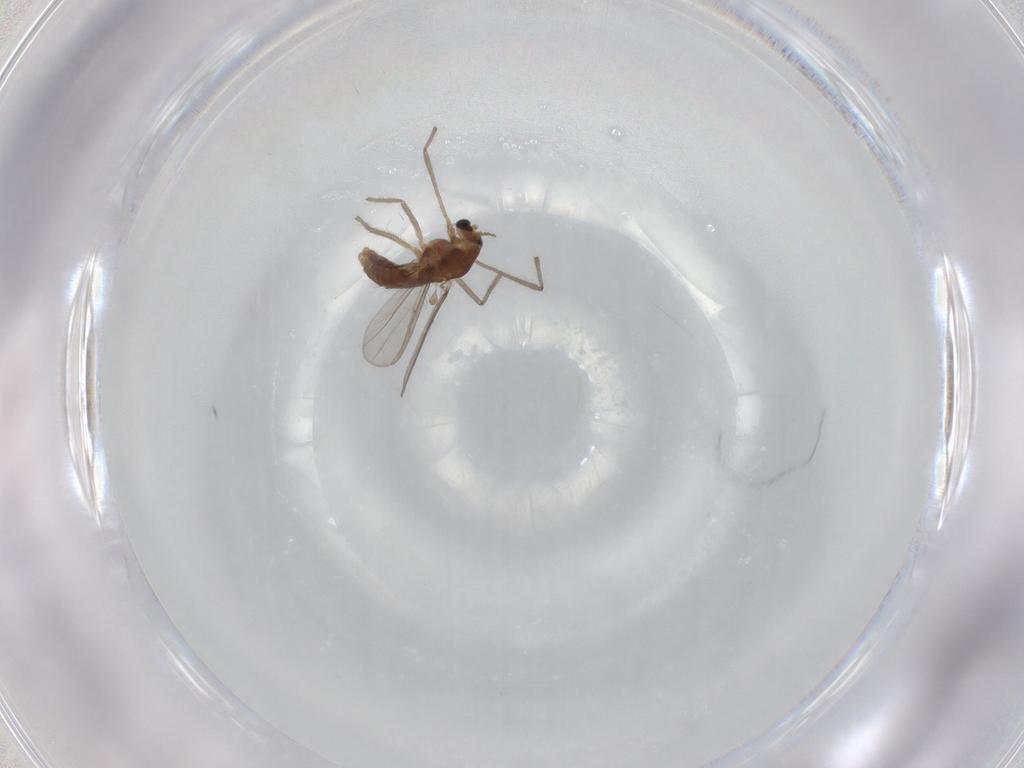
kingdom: Animalia
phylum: Arthropoda
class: Insecta
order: Diptera
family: Chironomidae
